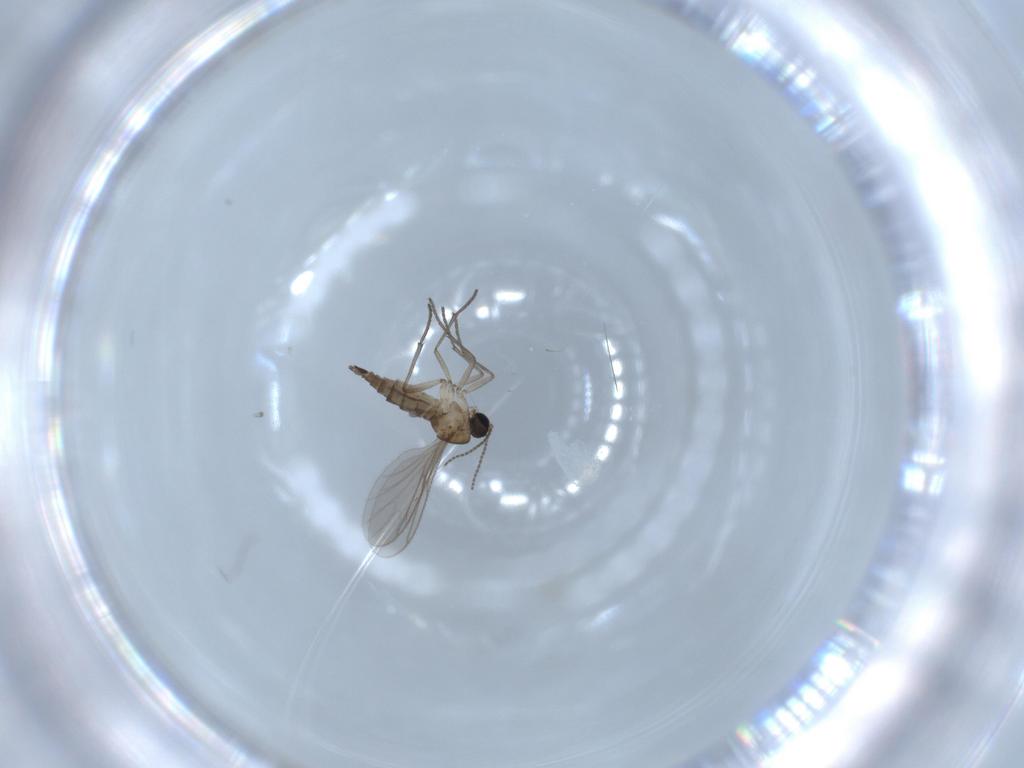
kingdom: Animalia
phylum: Arthropoda
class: Insecta
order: Diptera
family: Sciaridae
